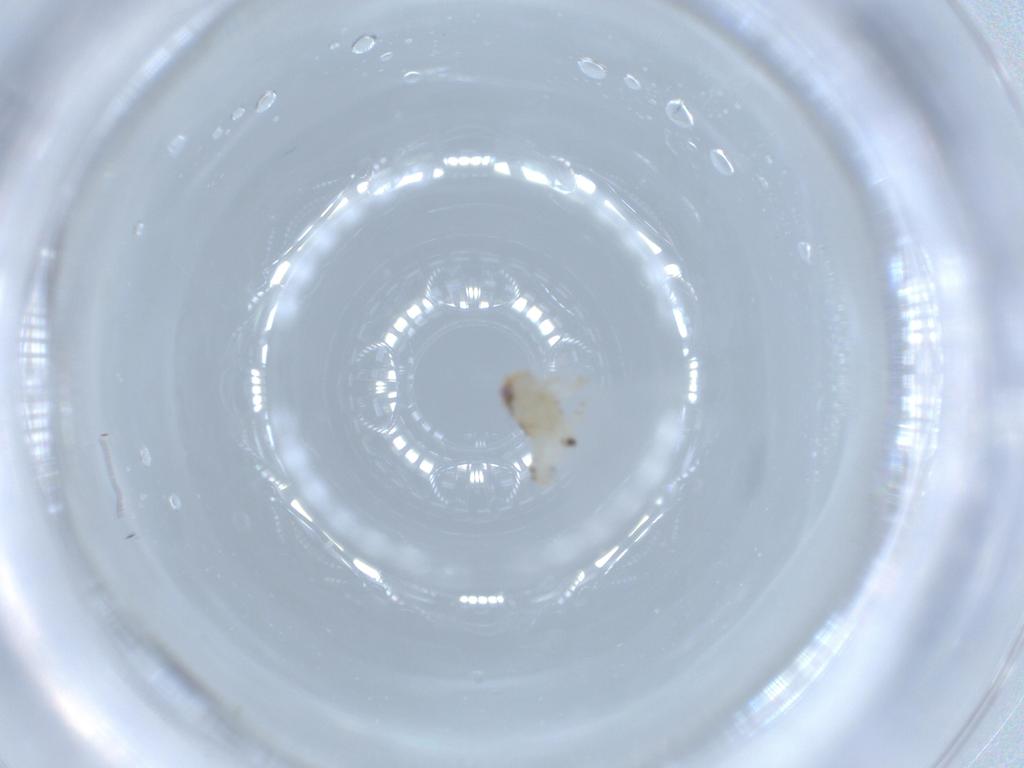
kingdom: Animalia
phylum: Arthropoda
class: Insecta
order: Hemiptera
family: Nogodinidae
